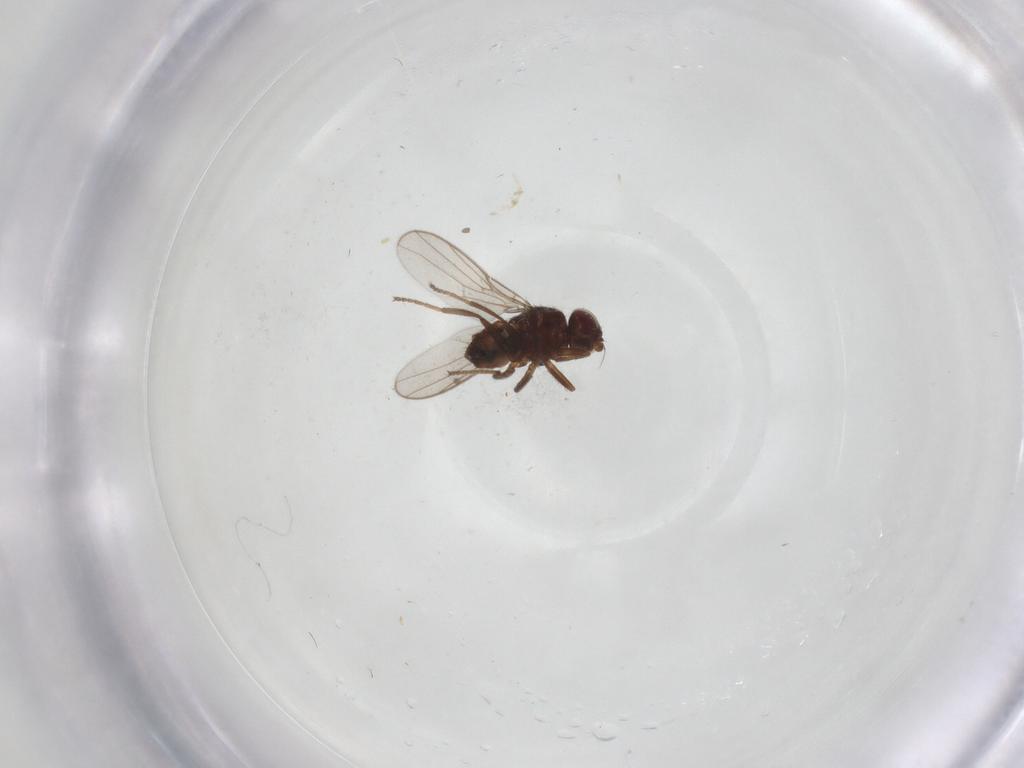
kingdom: Animalia
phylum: Arthropoda
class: Insecta
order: Diptera
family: Chloropidae
